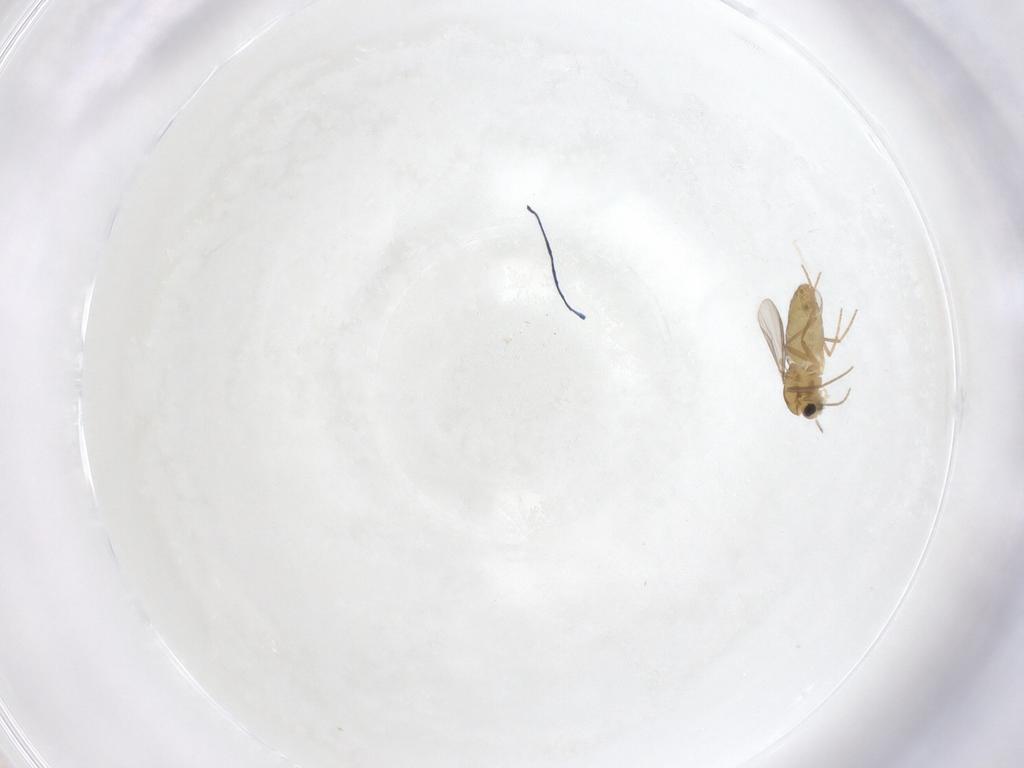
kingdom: Animalia
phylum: Arthropoda
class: Insecta
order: Diptera
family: Chironomidae
